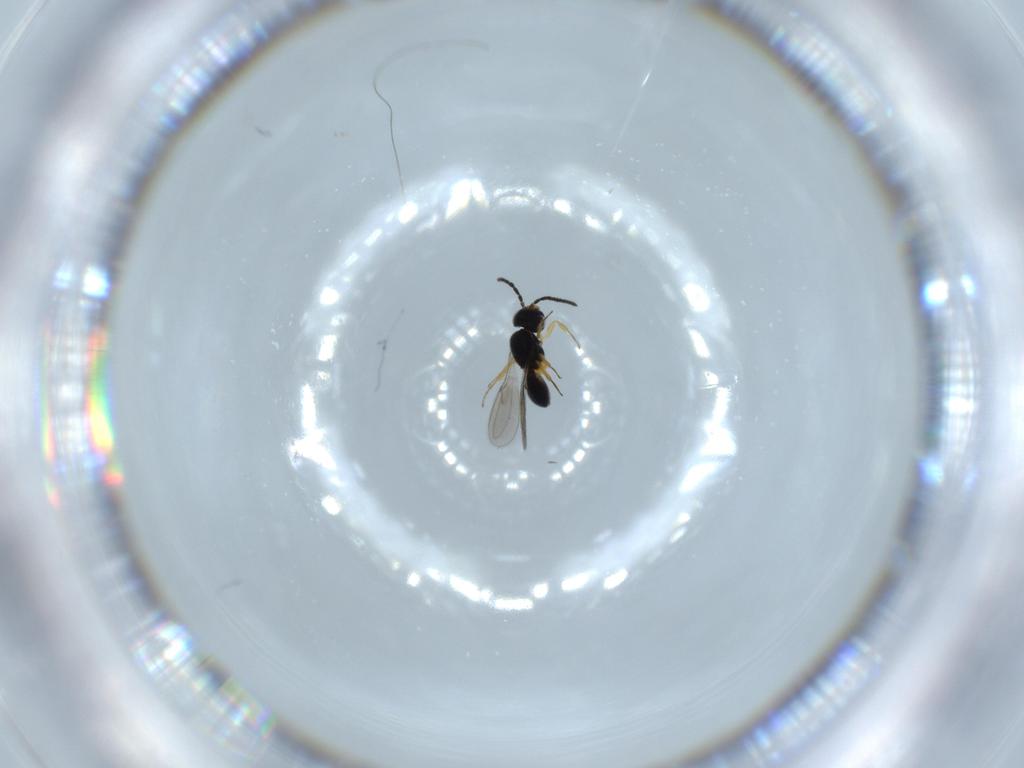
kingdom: Animalia
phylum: Arthropoda
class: Insecta
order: Hymenoptera
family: Scelionidae
